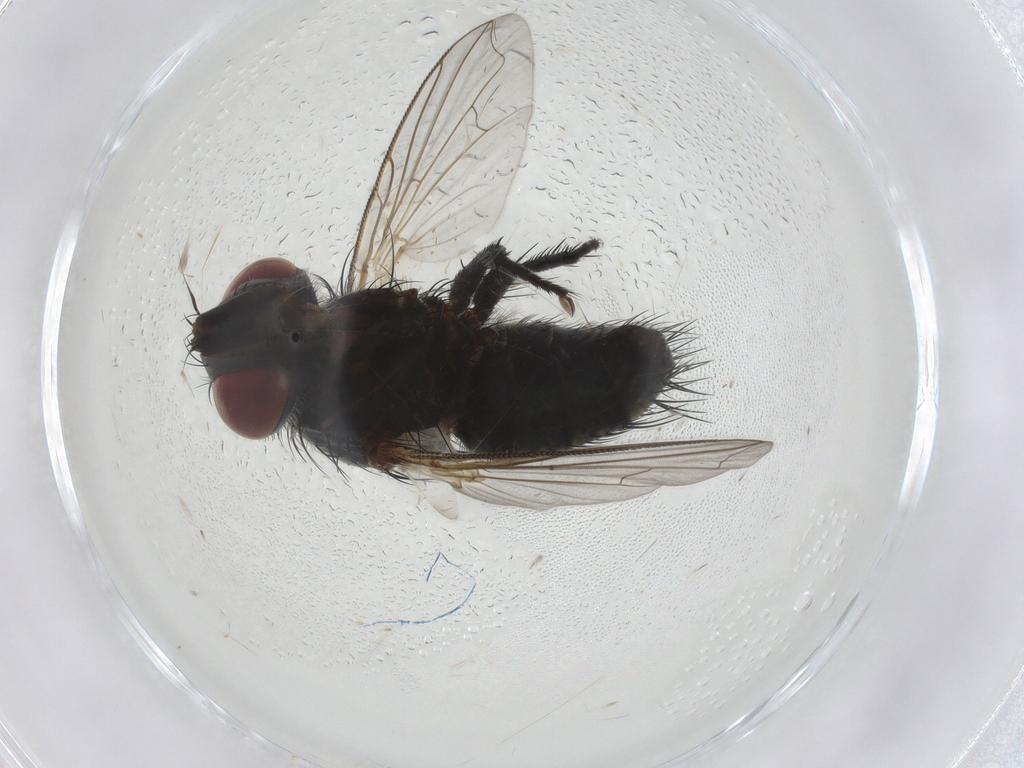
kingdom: Animalia
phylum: Arthropoda
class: Insecta
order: Diptera
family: Tachinidae
